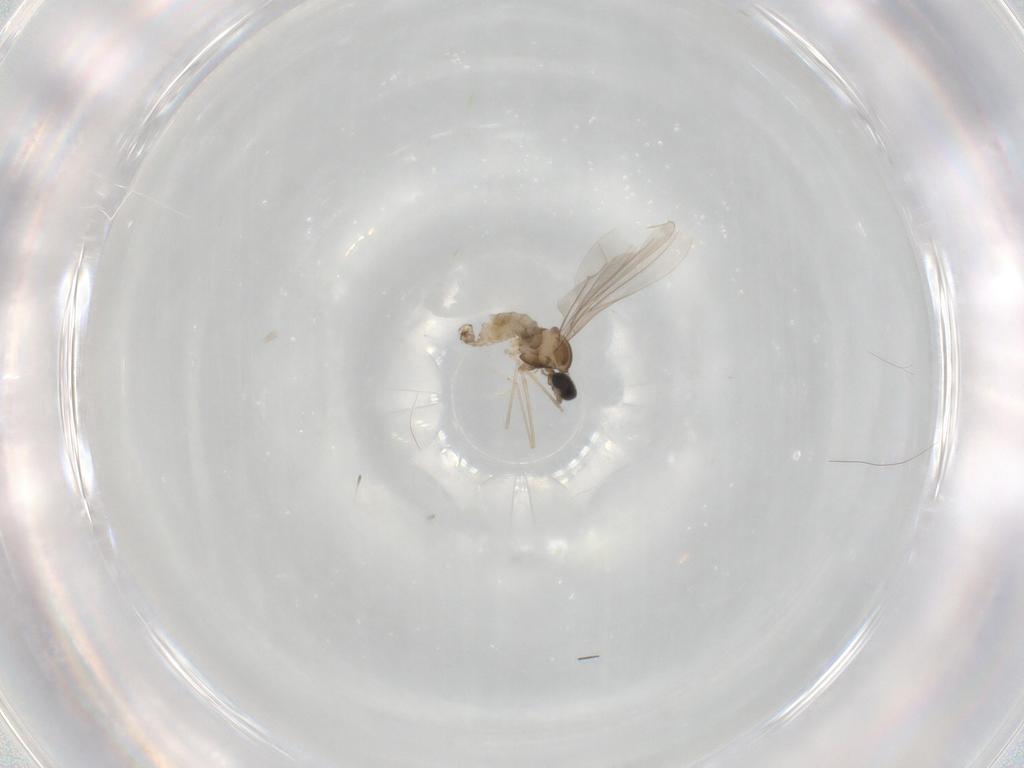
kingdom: Animalia
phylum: Arthropoda
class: Insecta
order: Diptera
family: Cecidomyiidae
